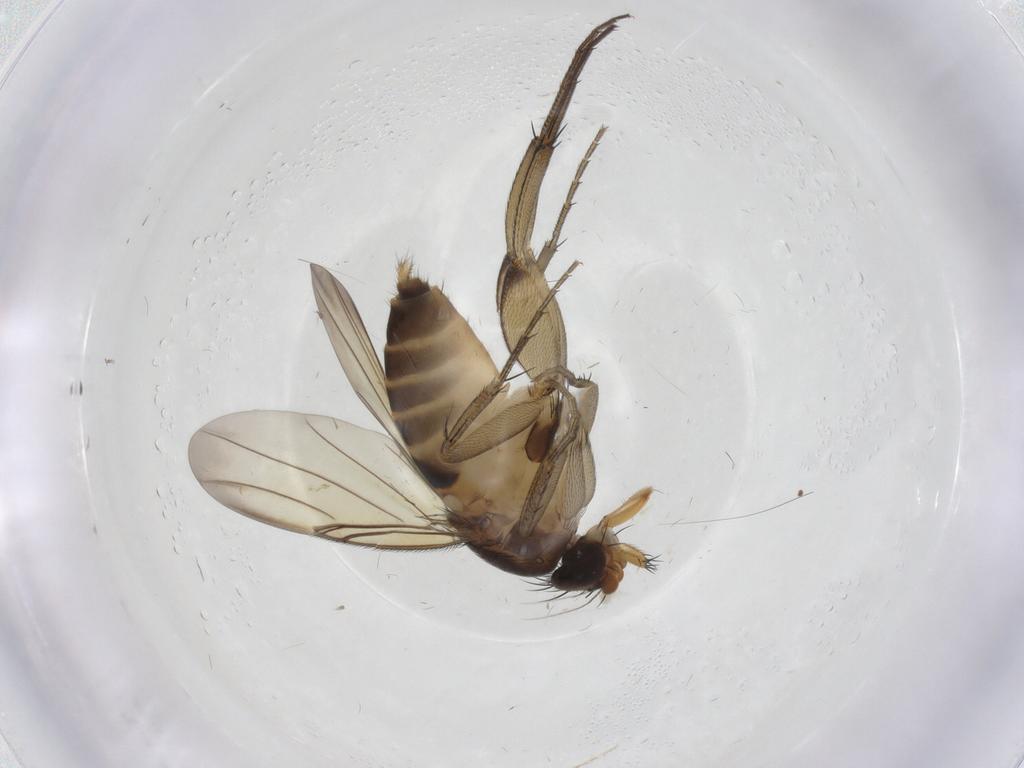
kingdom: Animalia
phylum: Arthropoda
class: Insecta
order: Diptera
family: Phoridae
